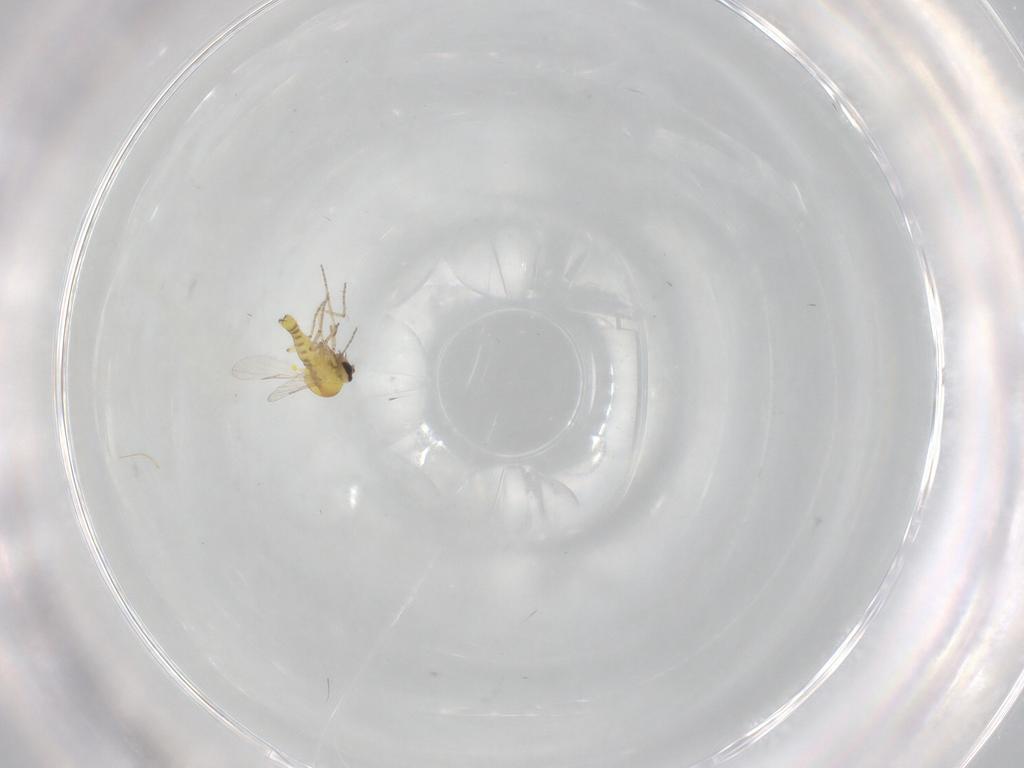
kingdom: Animalia
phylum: Arthropoda
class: Insecta
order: Diptera
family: Ceratopogonidae
